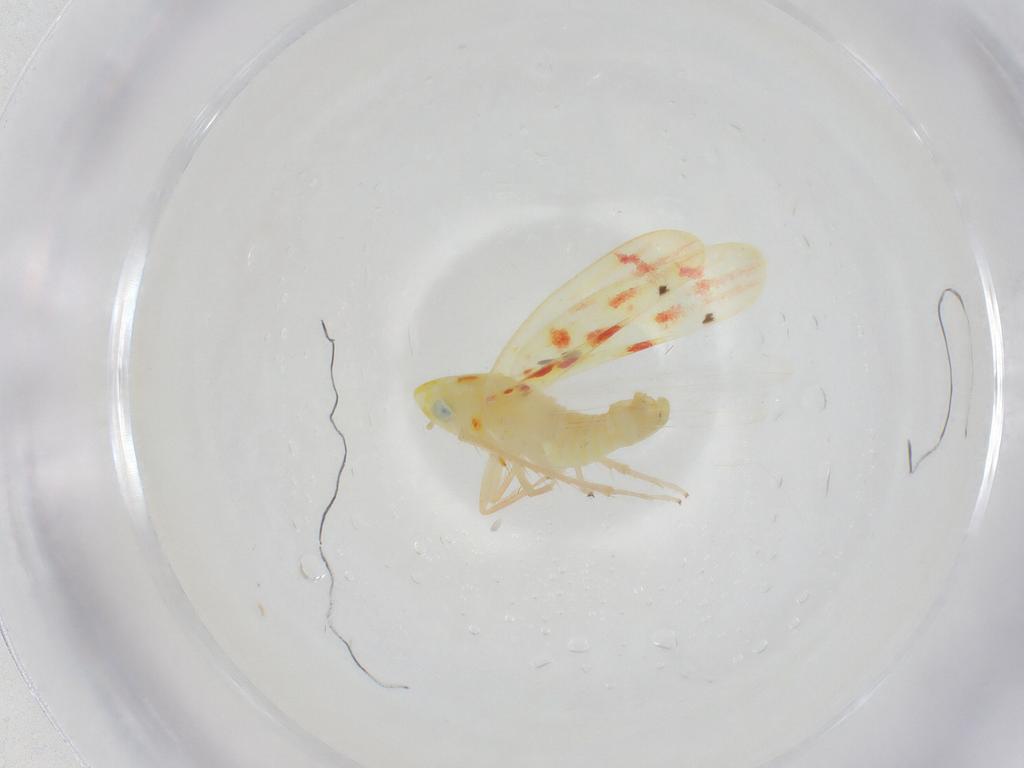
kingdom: Animalia
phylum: Arthropoda
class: Insecta
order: Hemiptera
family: Cicadellidae
